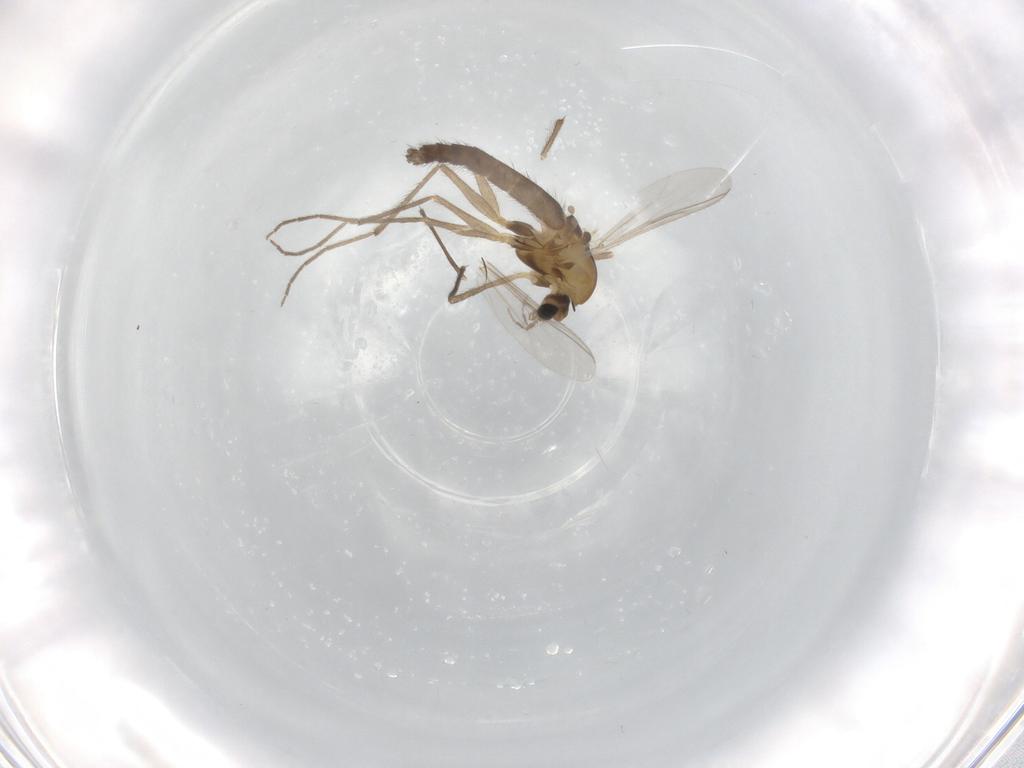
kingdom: Animalia
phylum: Arthropoda
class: Insecta
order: Diptera
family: Chironomidae
